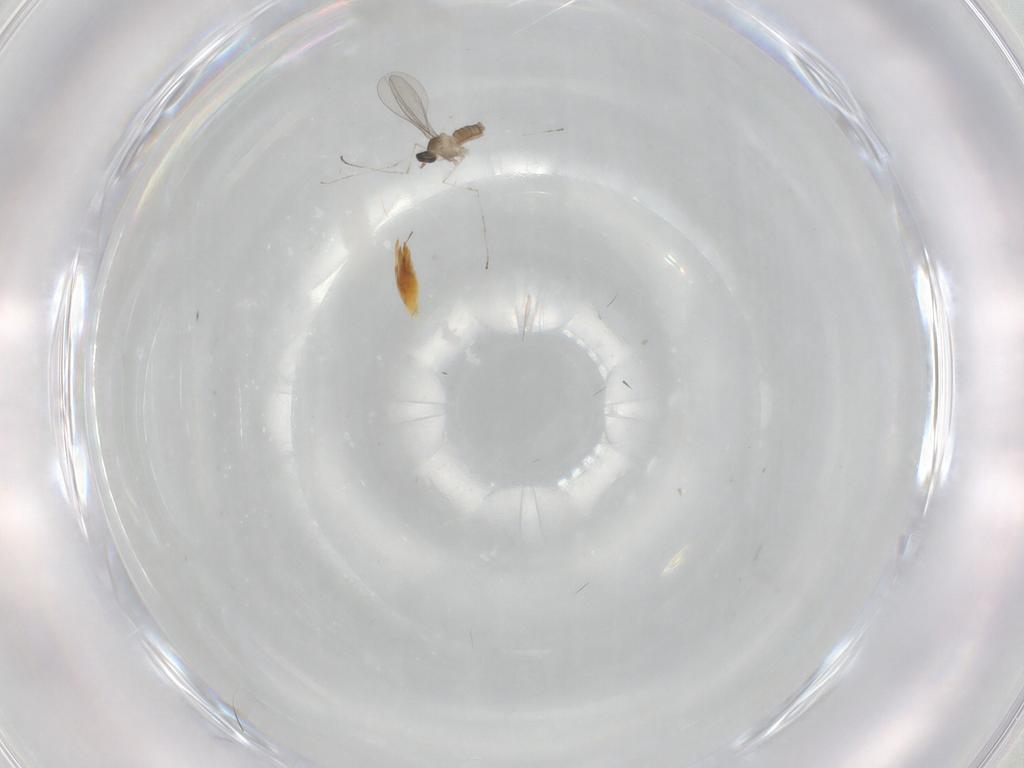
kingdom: Animalia
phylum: Arthropoda
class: Insecta
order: Diptera
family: Cecidomyiidae
